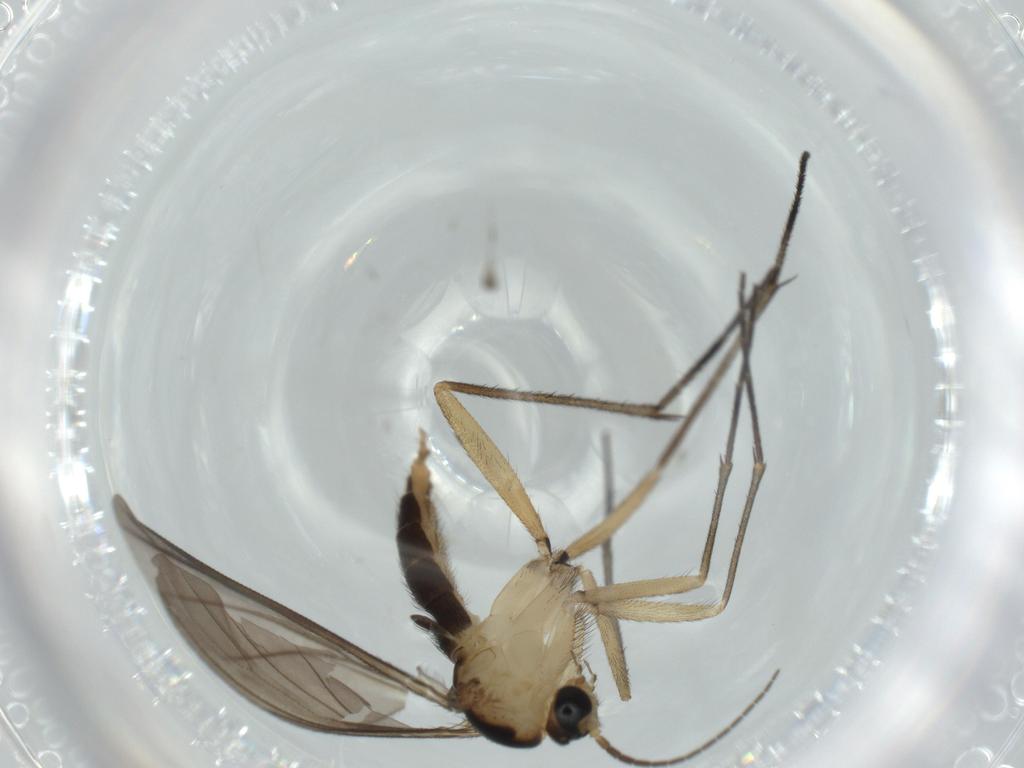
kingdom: Animalia
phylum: Arthropoda
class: Insecta
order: Diptera
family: Sciaridae
